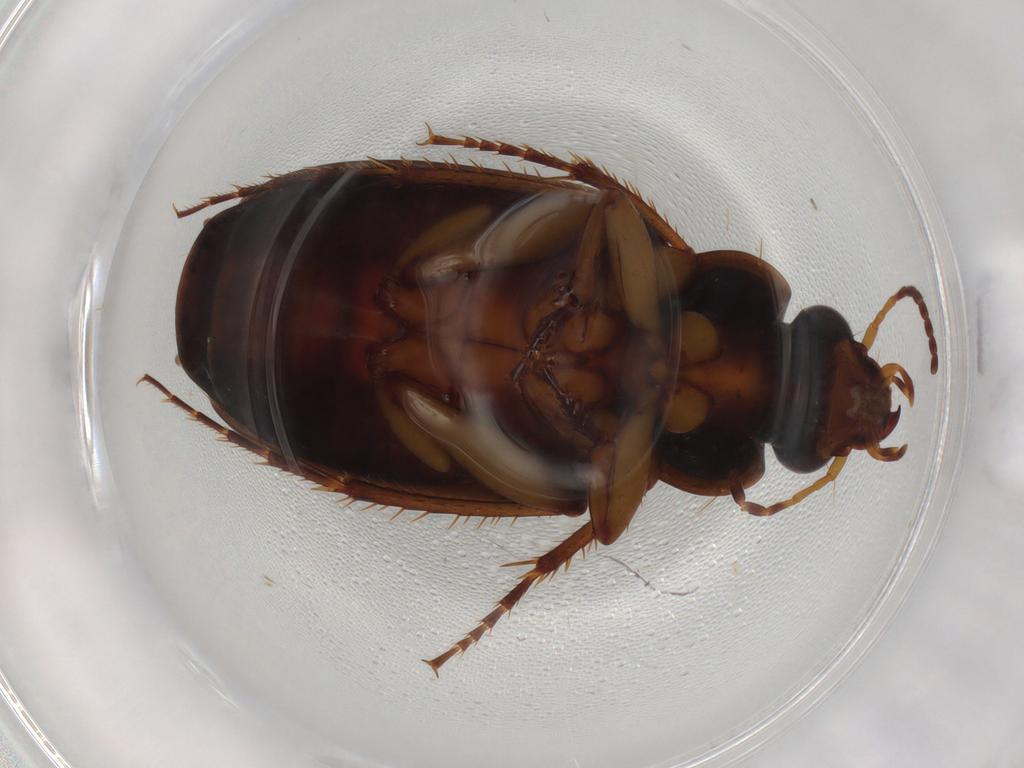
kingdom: Animalia
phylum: Arthropoda
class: Insecta
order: Coleoptera
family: Carabidae
